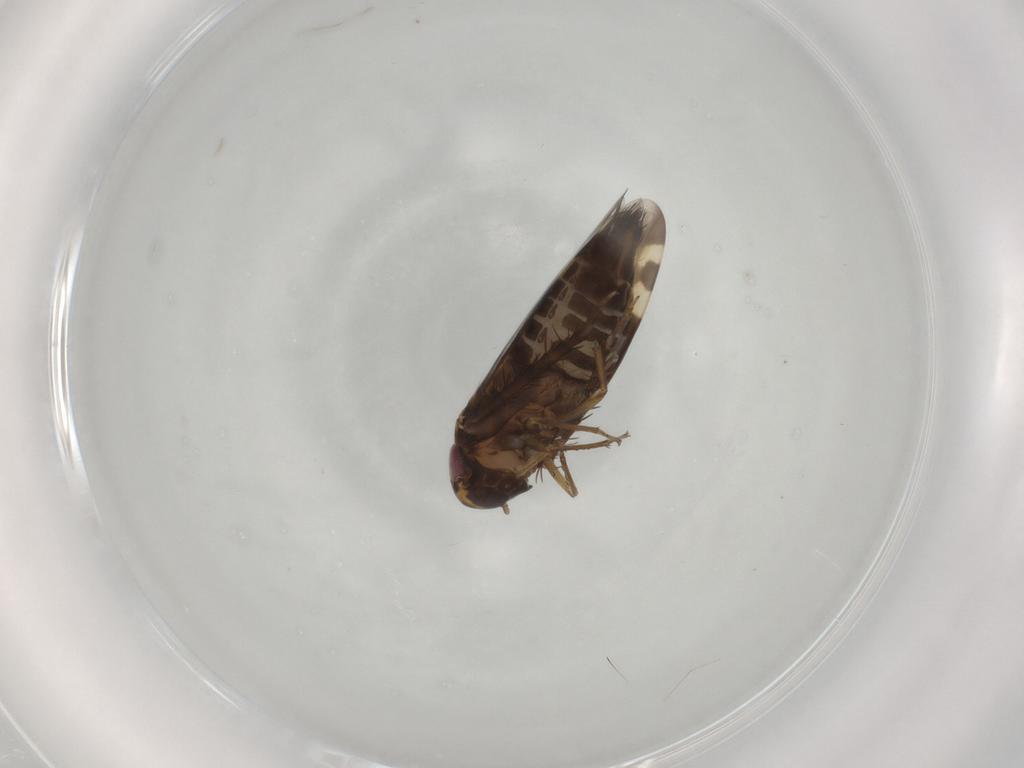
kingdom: Animalia
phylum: Arthropoda
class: Insecta
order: Hemiptera
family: Cicadellidae
